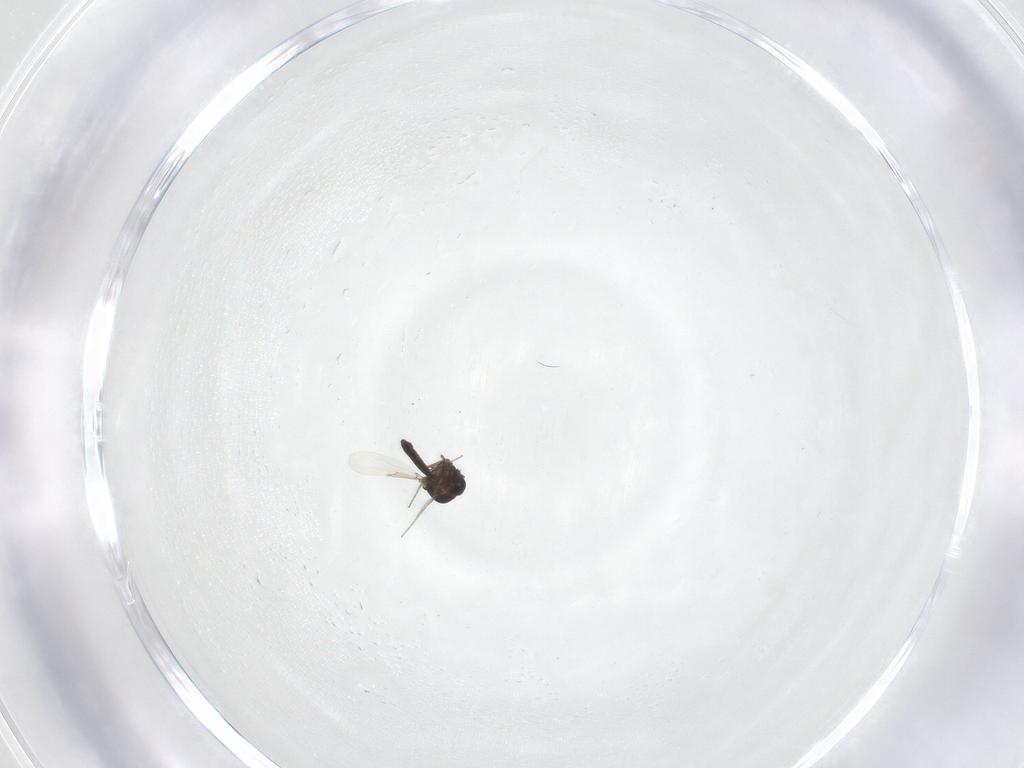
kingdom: Animalia
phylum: Arthropoda
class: Insecta
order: Diptera
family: Ceratopogonidae
